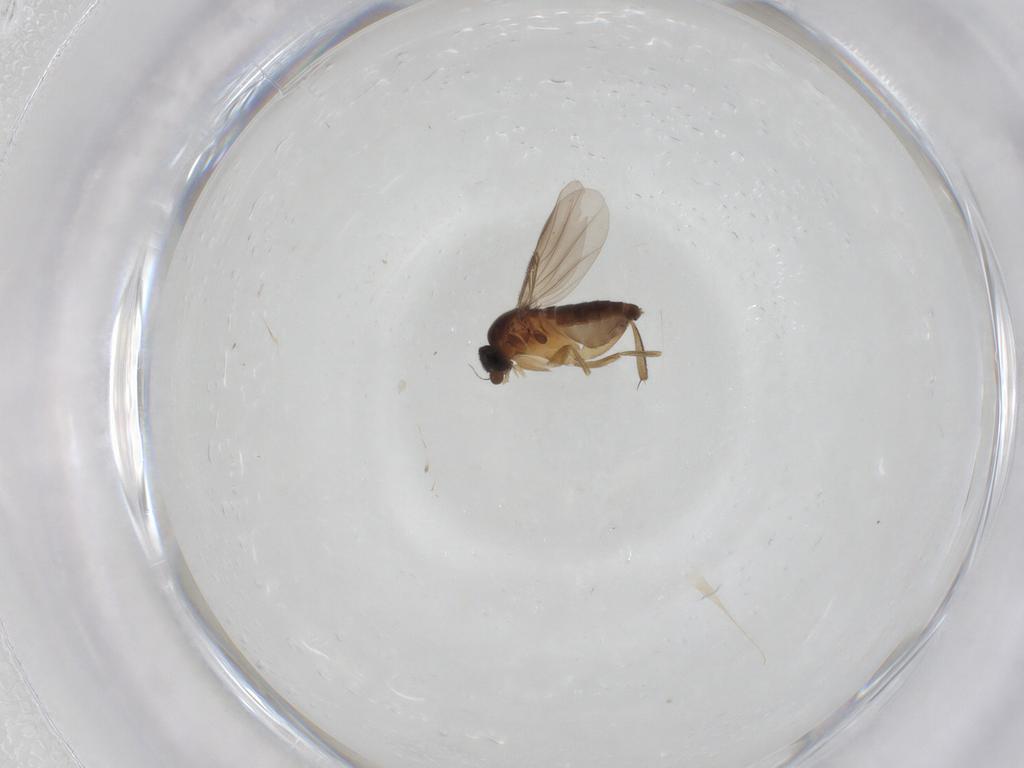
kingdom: Animalia
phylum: Arthropoda
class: Insecta
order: Diptera
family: Phoridae
